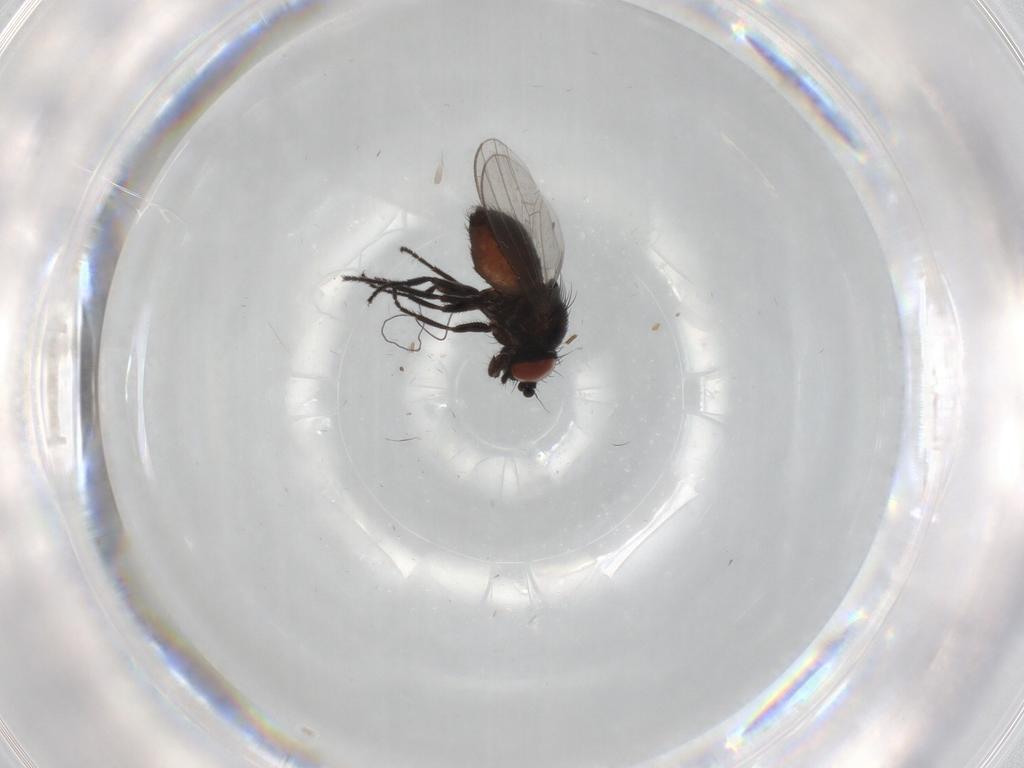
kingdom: Animalia
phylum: Arthropoda
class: Insecta
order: Diptera
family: Milichiidae
